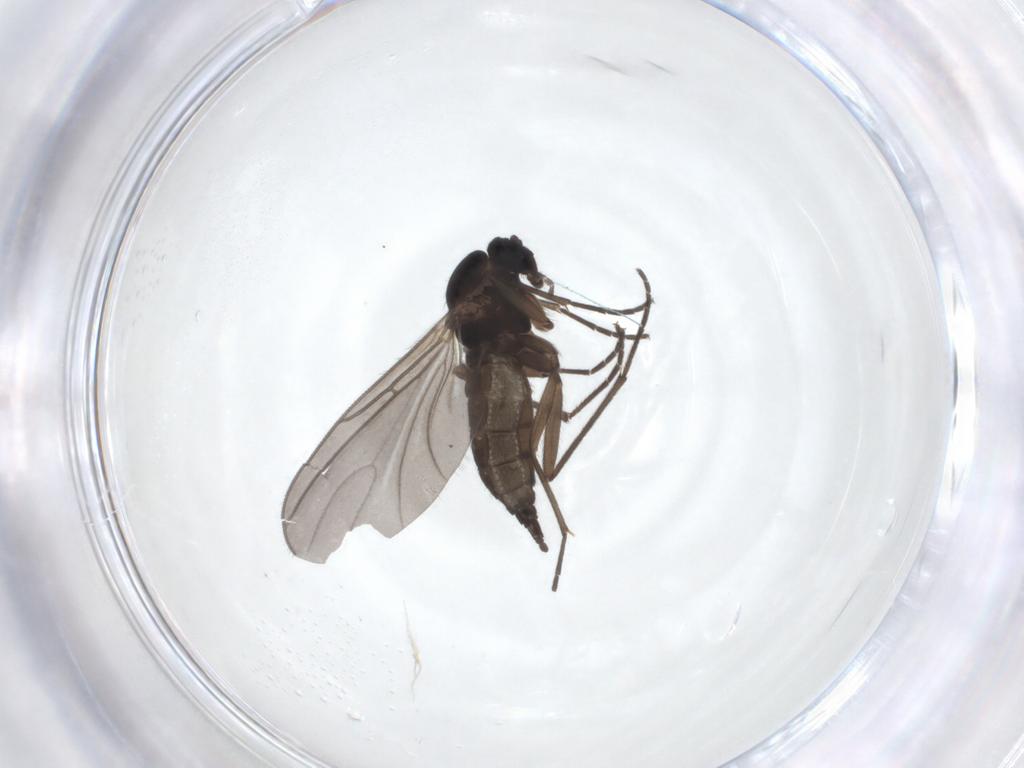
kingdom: Animalia
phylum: Arthropoda
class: Insecta
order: Diptera
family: Sciaridae
